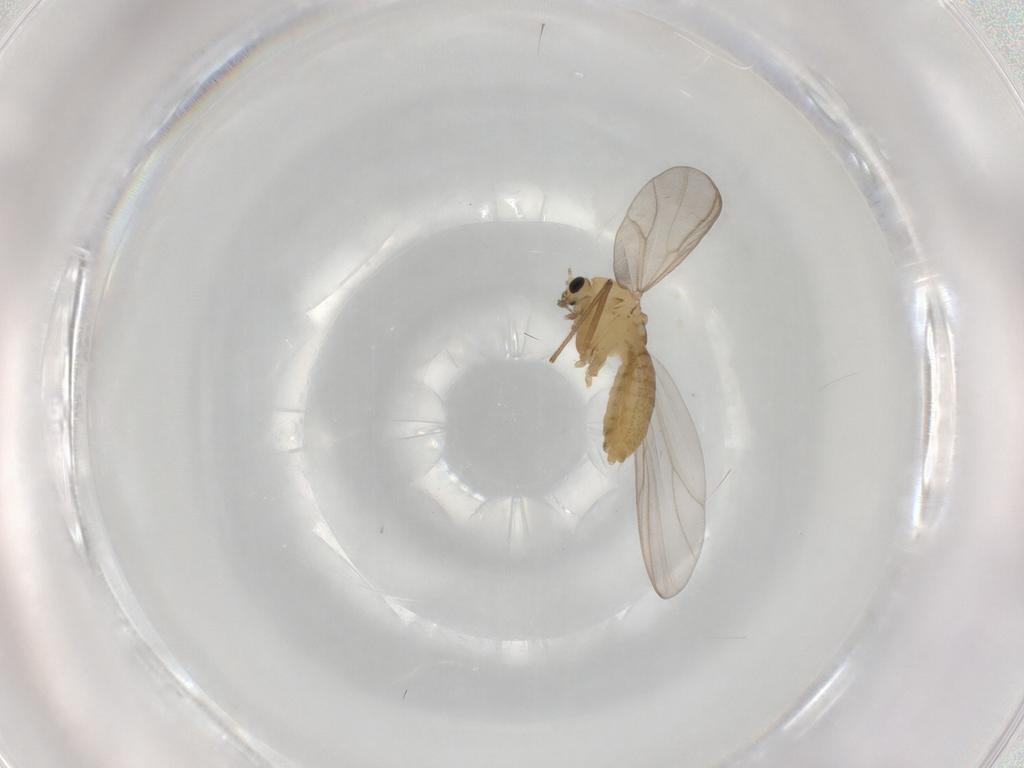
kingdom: Animalia
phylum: Arthropoda
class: Insecta
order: Diptera
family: Chironomidae
